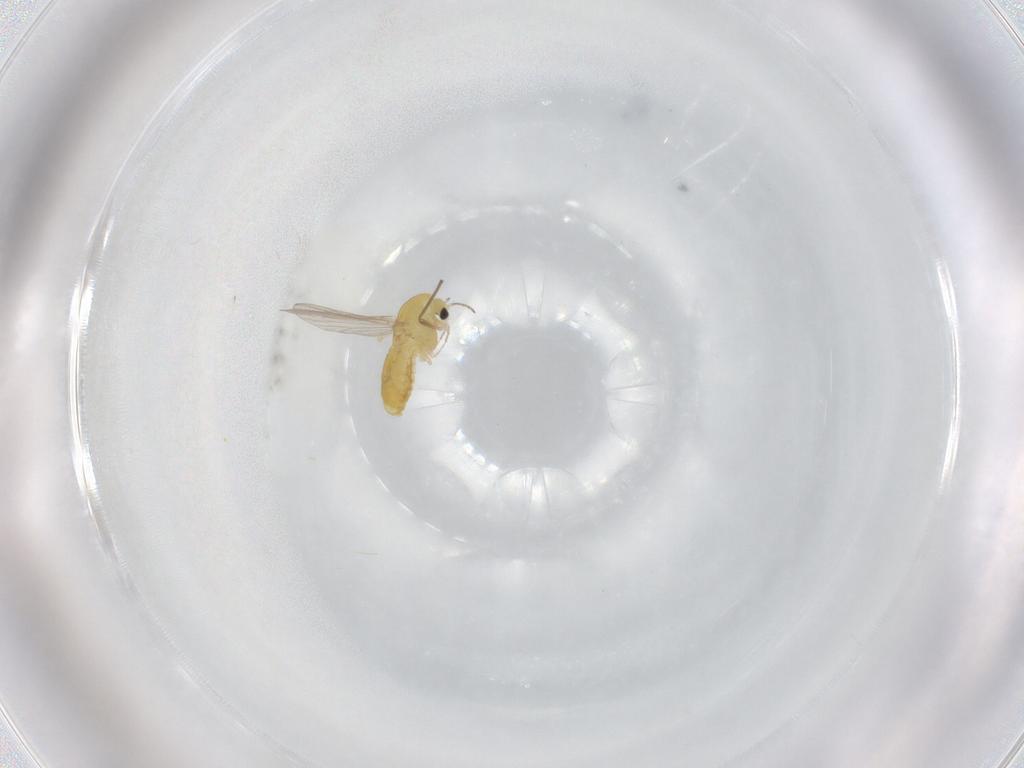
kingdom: Animalia
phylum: Arthropoda
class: Insecta
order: Diptera
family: Chironomidae
